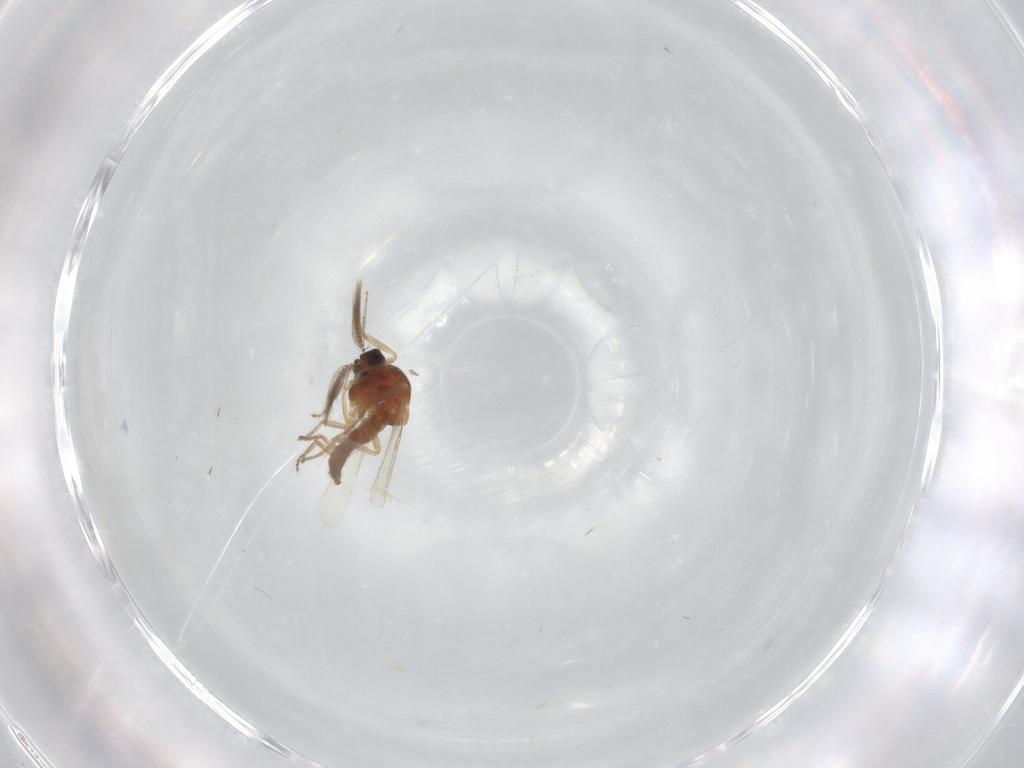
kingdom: Animalia
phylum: Arthropoda
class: Insecta
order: Diptera
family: Ceratopogonidae
